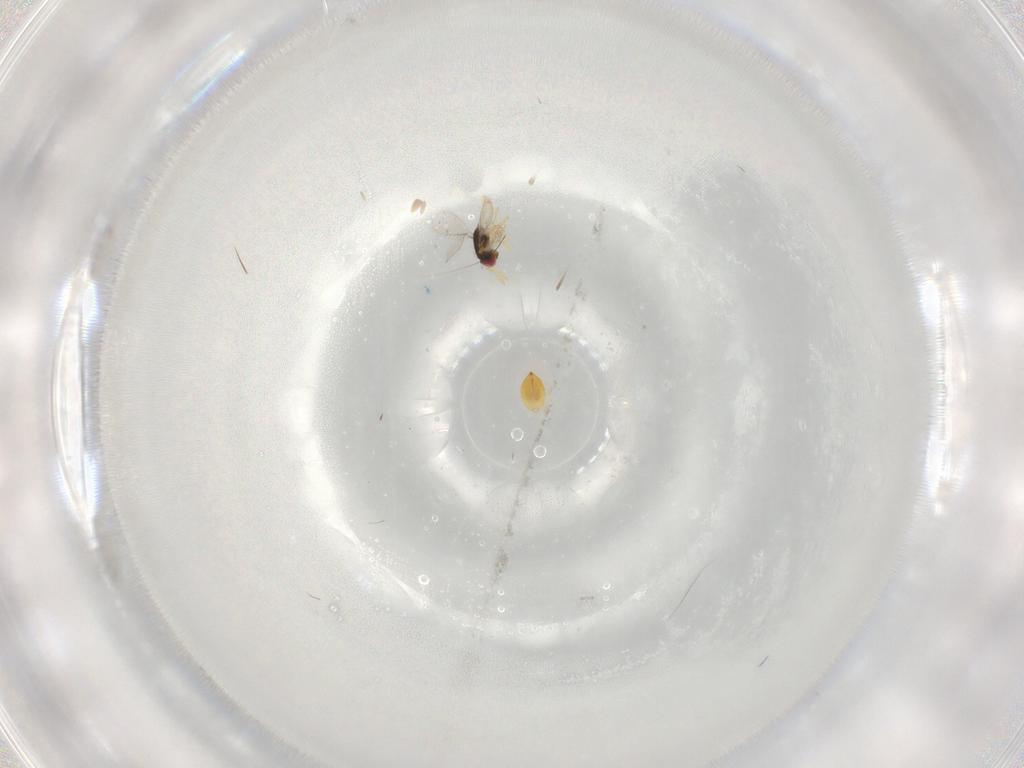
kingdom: Animalia
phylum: Arthropoda
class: Insecta
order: Hymenoptera
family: Eulophidae
